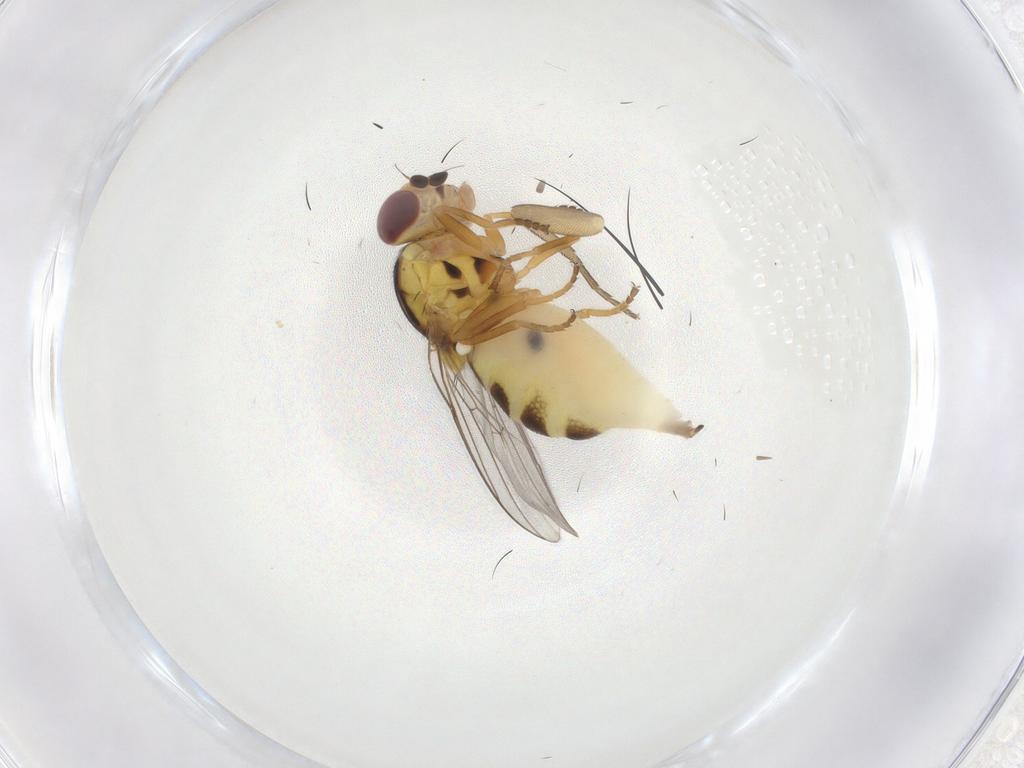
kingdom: Animalia
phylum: Arthropoda
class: Insecta
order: Diptera
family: Chloropidae
